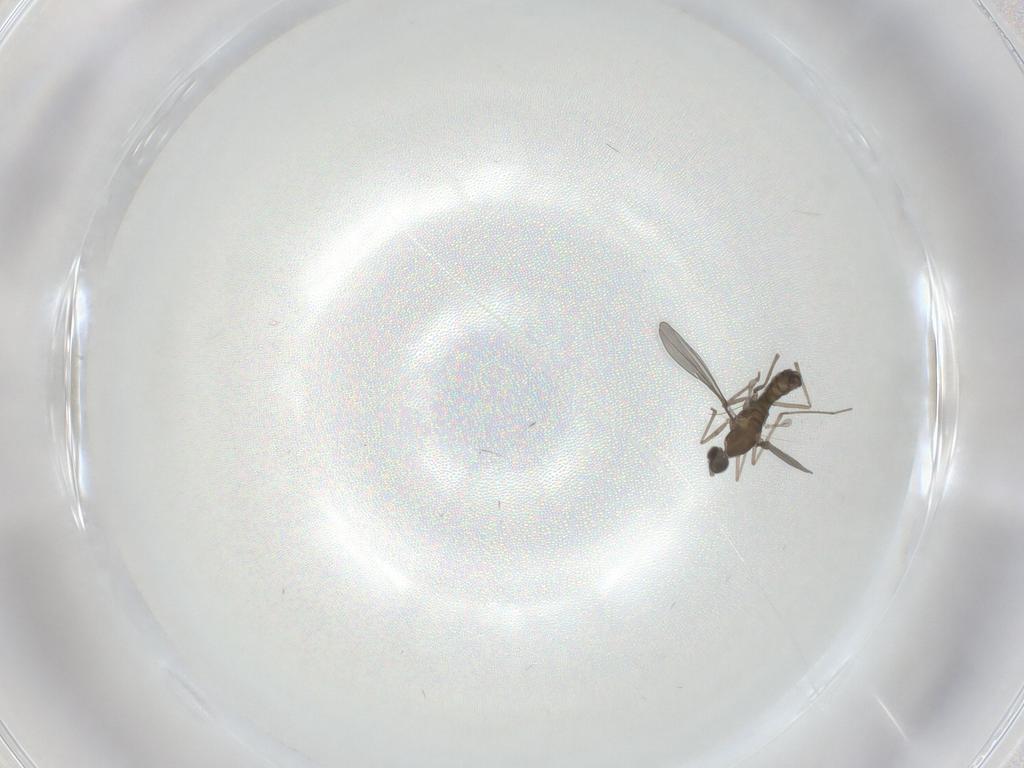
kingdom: Animalia
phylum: Arthropoda
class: Insecta
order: Diptera
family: Cecidomyiidae
